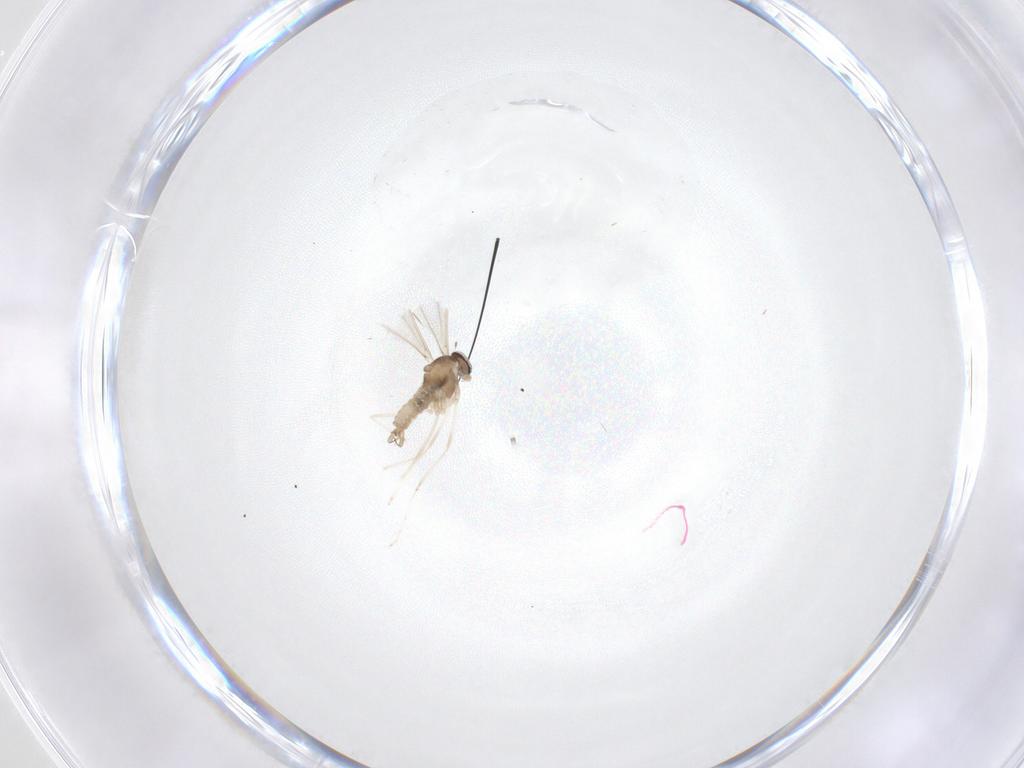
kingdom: Animalia
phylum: Arthropoda
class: Insecta
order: Diptera
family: Cecidomyiidae
